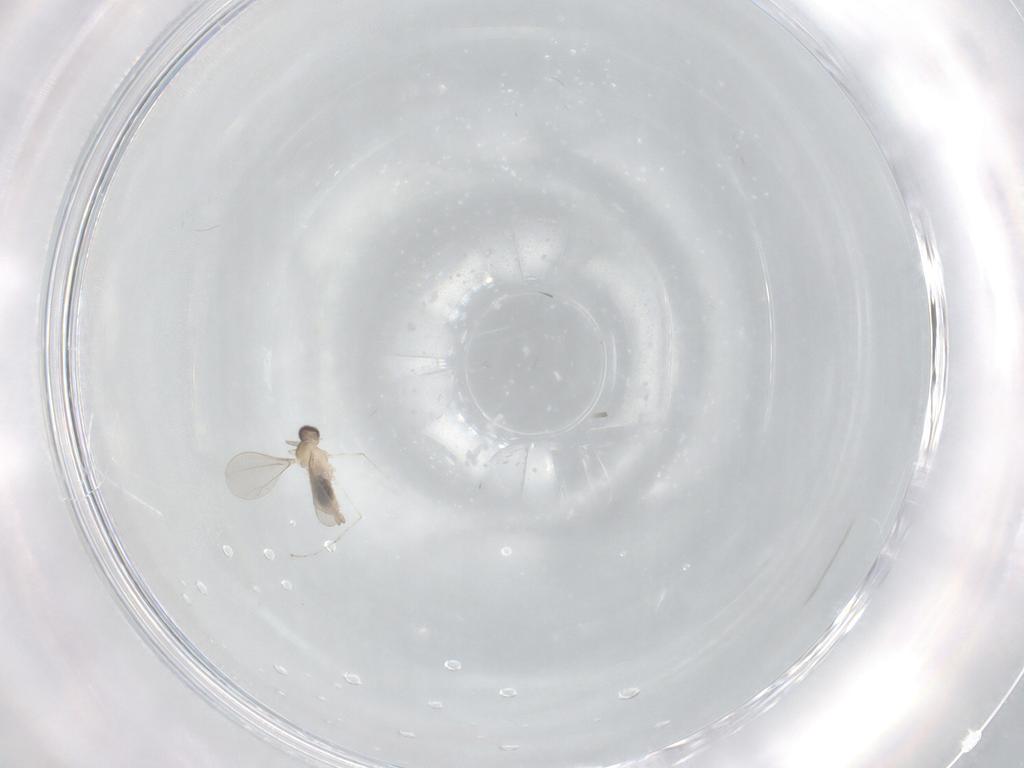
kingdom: Animalia
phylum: Arthropoda
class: Insecta
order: Diptera
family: Cecidomyiidae
